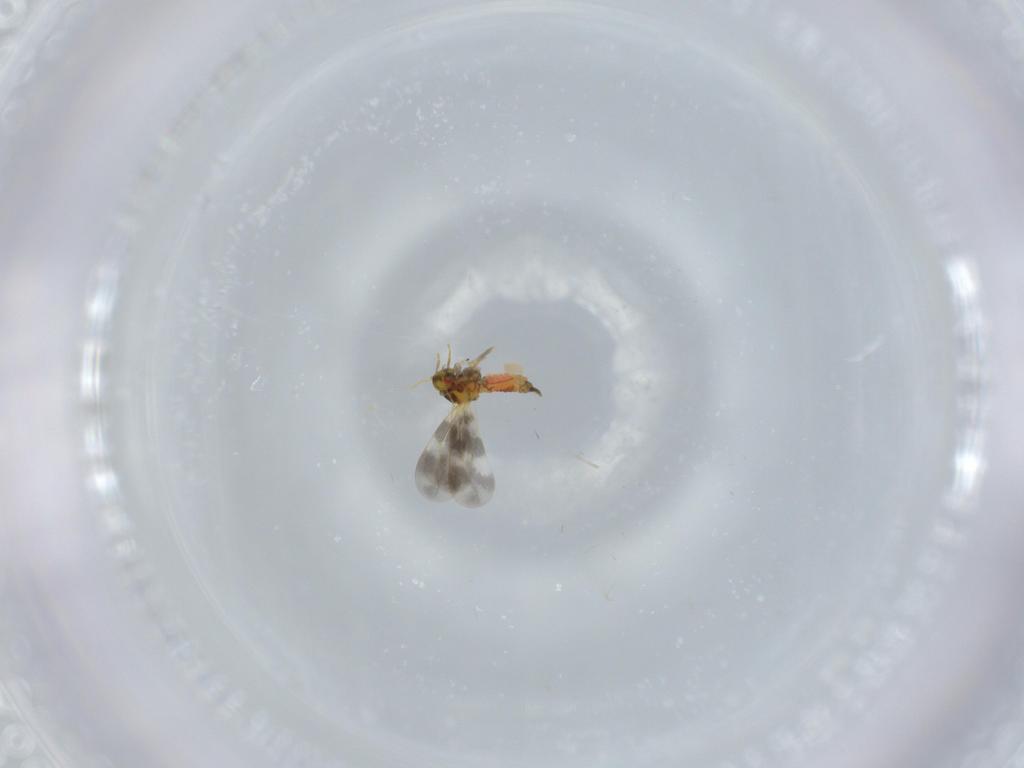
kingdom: Animalia
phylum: Arthropoda
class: Insecta
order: Hemiptera
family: Aleyrodidae
